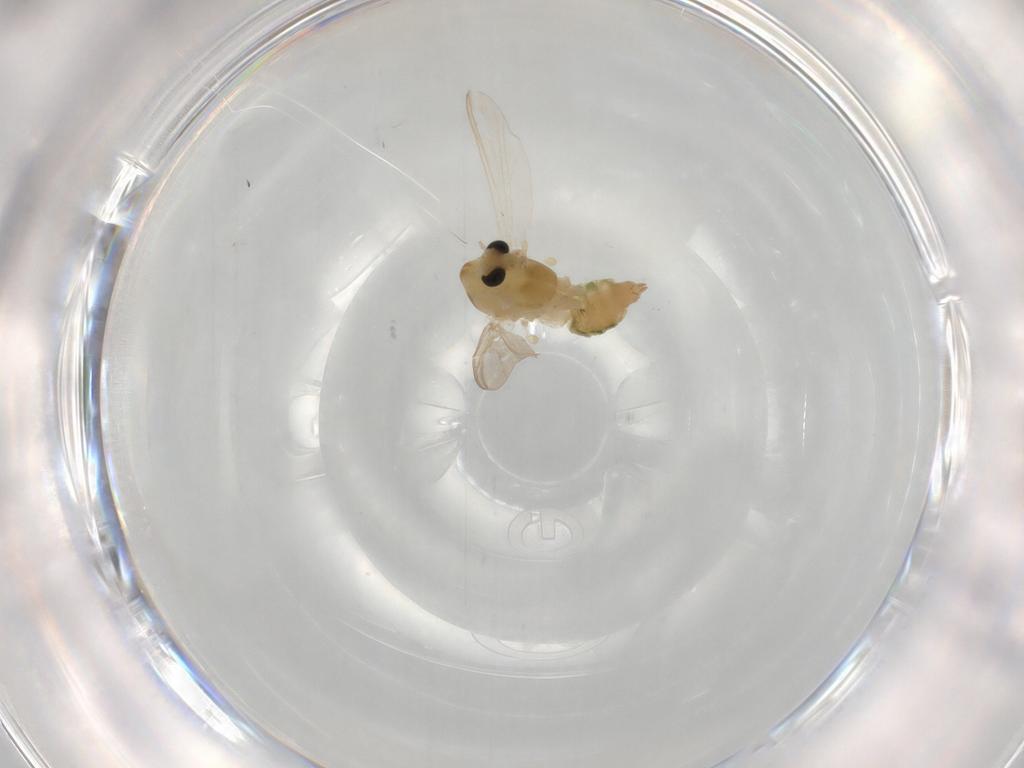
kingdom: Animalia
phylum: Arthropoda
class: Insecta
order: Diptera
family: Chironomidae
